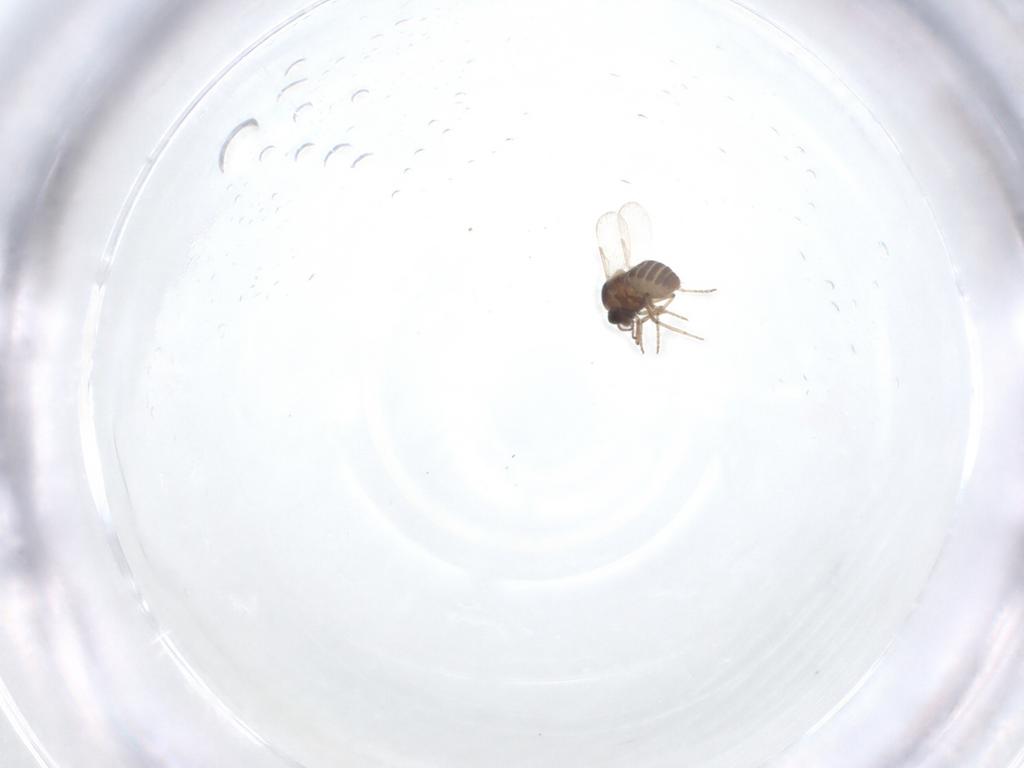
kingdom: Animalia
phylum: Arthropoda
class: Insecta
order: Diptera
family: Ceratopogonidae
